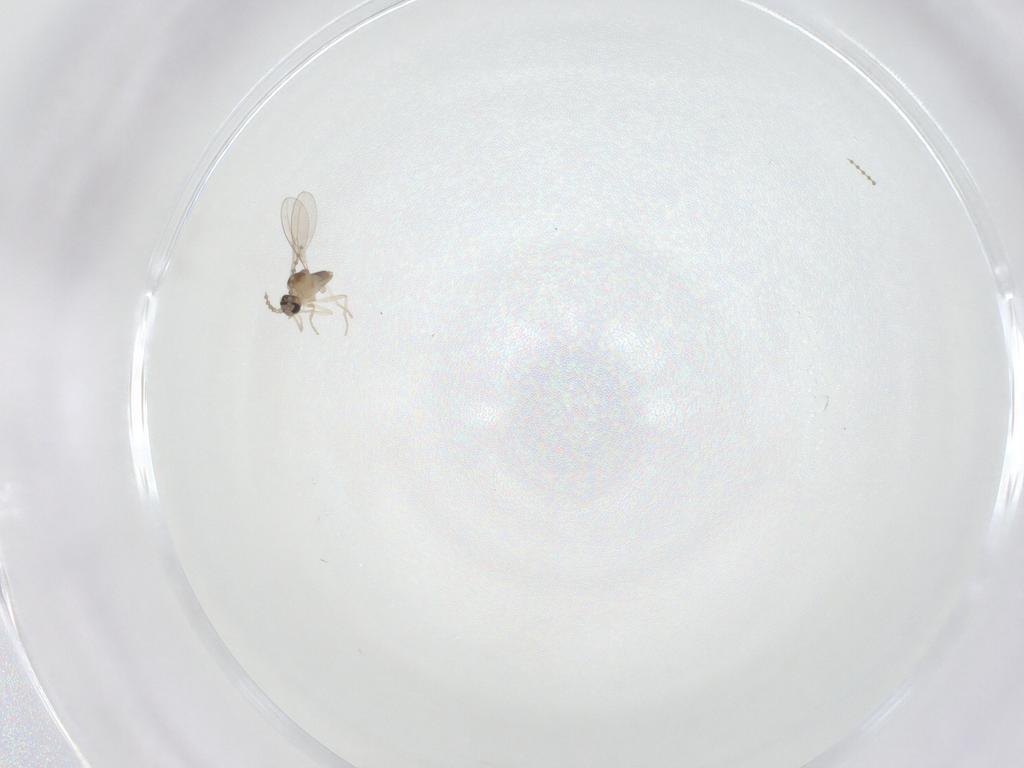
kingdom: Animalia
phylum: Arthropoda
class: Insecta
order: Diptera
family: Cecidomyiidae
